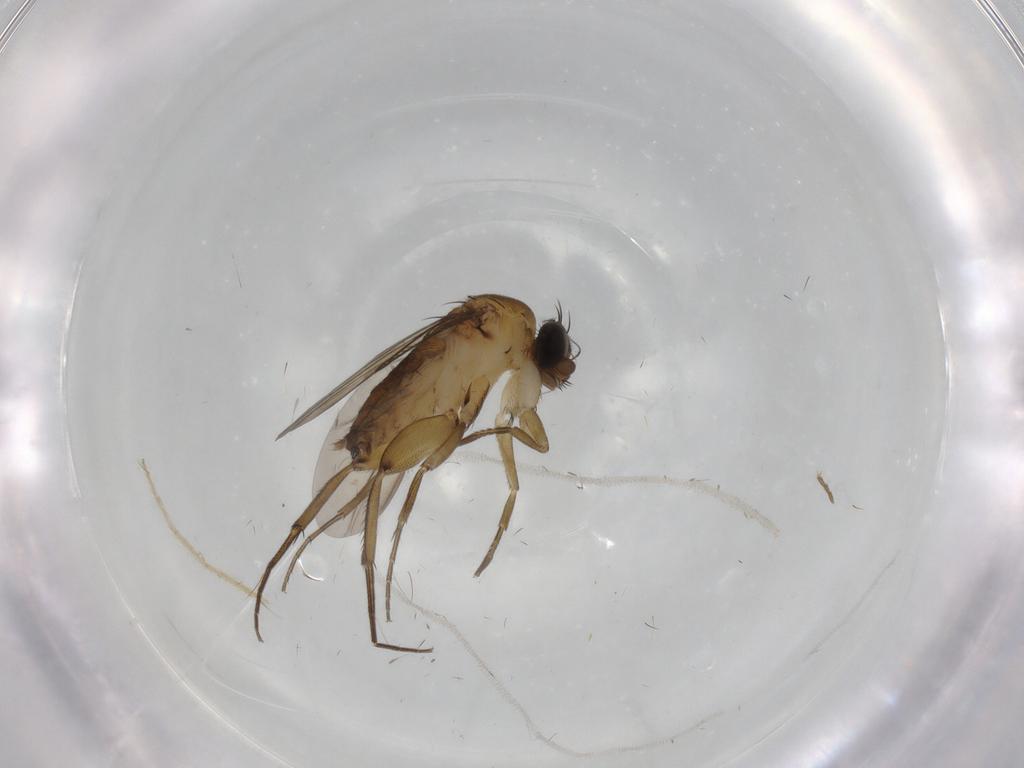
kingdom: Animalia
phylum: Arthropoda
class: Insecta
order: Diptera
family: Phoridae
